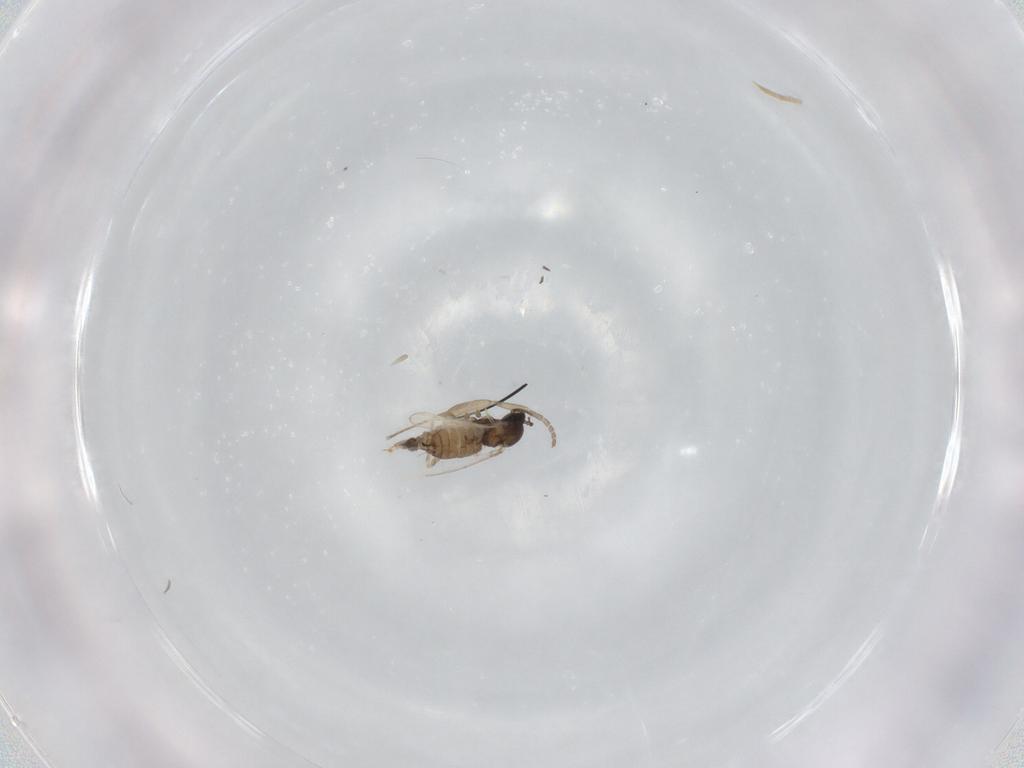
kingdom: Animalia
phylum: Arthropoda
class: Insecta
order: Diptera
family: Cecidomyiidae
